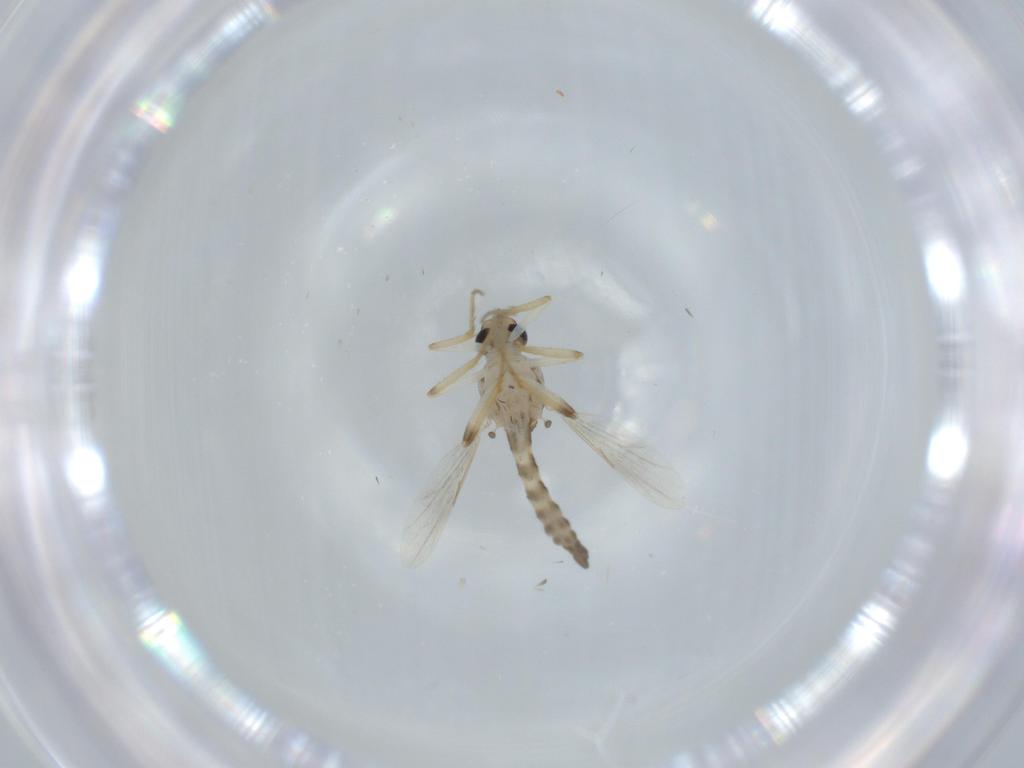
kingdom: Animalia
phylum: Arthropoda
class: Insecta
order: Diptera
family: Ceratopogonidae
